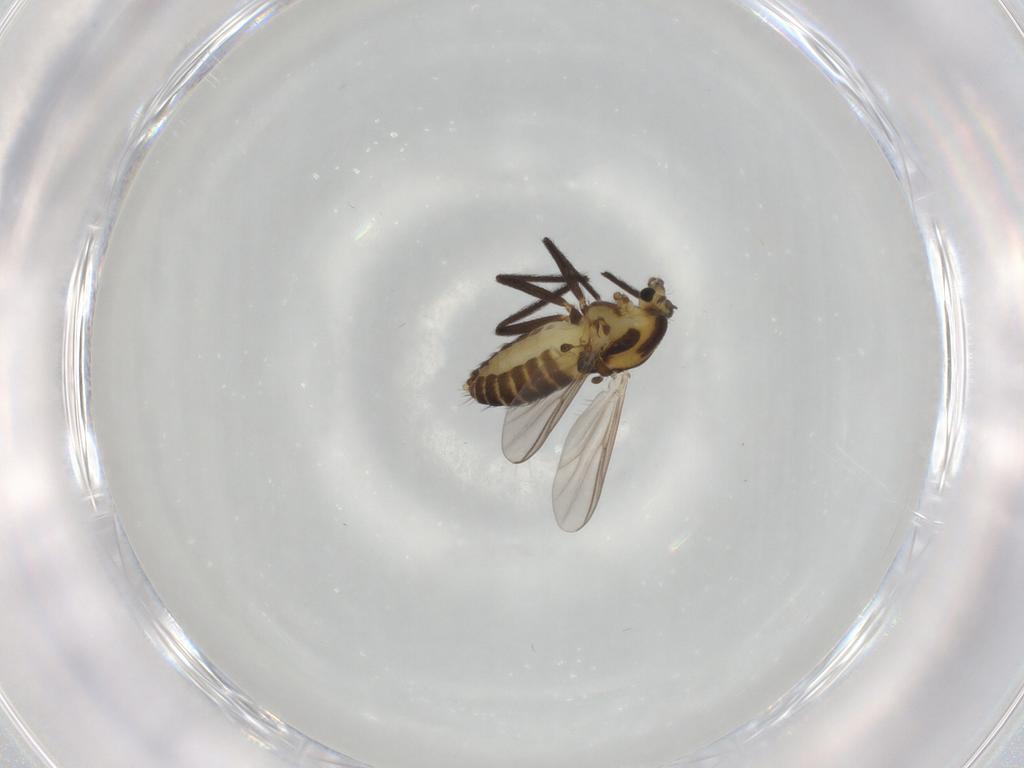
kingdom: Animalia
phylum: Arthropoda
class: Insecta
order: Diptera
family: Chironomidae
